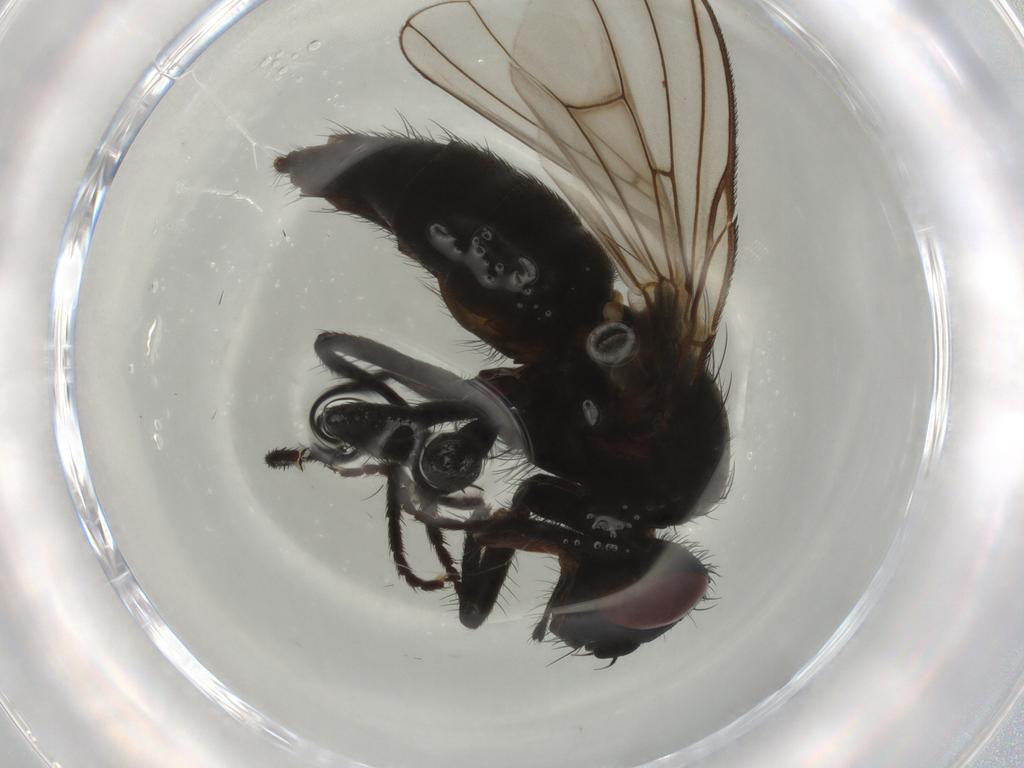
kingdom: Animalia
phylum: Arthropoda
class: Insecta
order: Diptera
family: Muscidae
